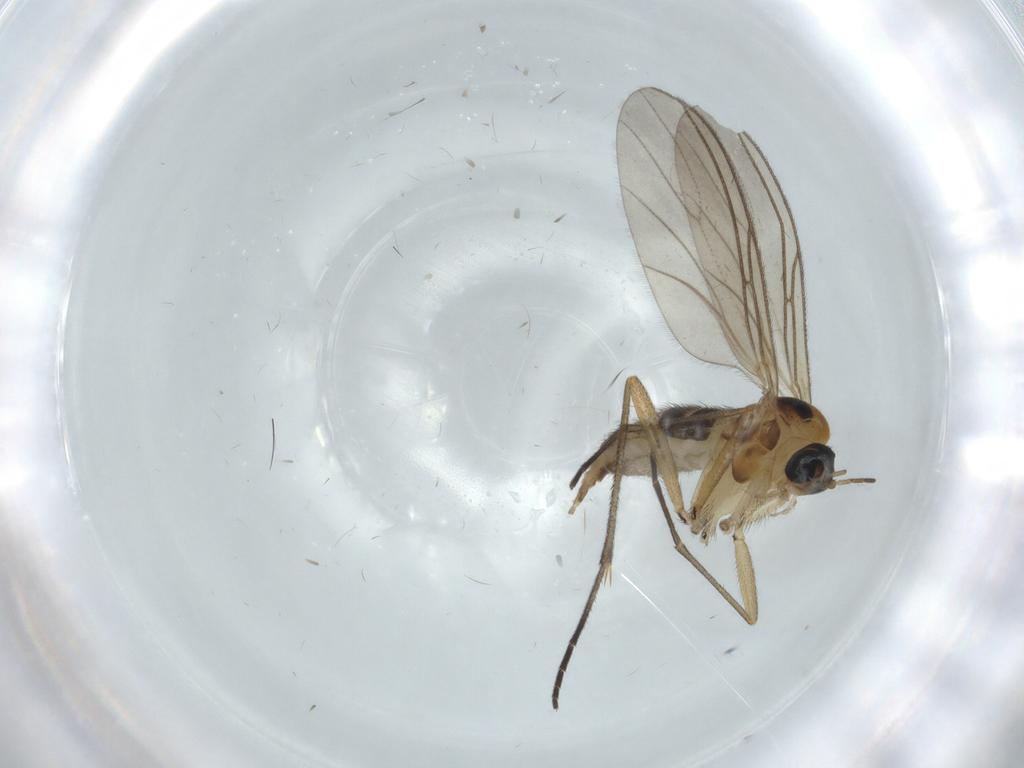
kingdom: Animalia
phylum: Arthropoda
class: Insecta
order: Diptera
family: Sciaridae
